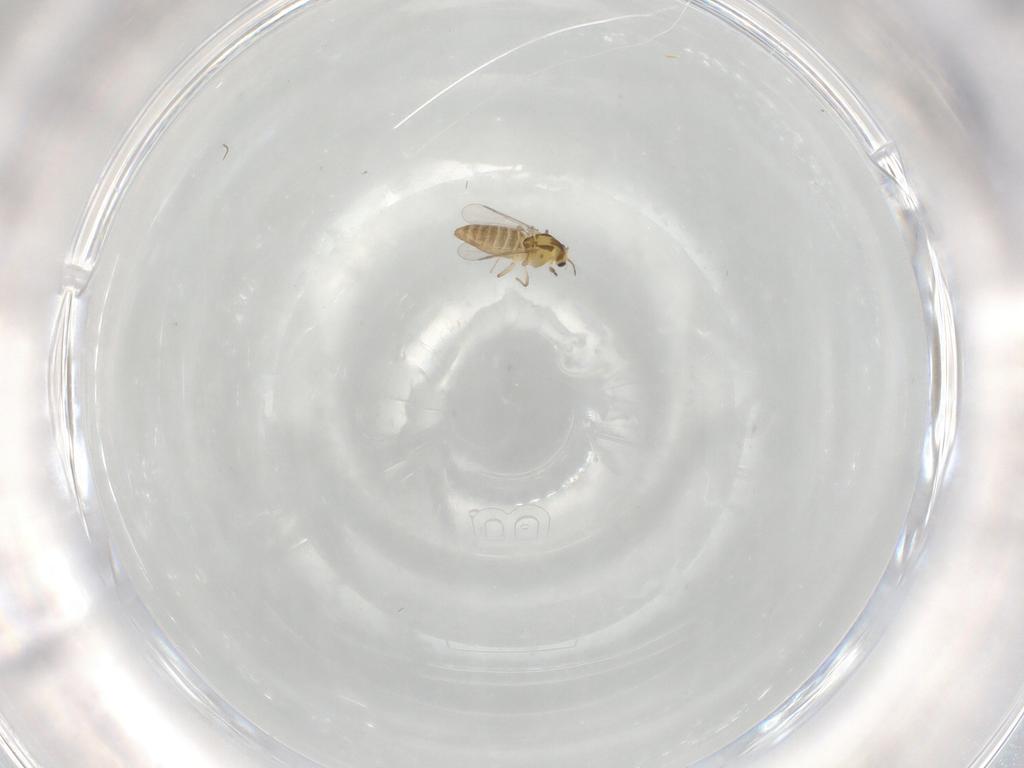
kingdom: Animalia
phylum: Arthropoda
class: Insecta
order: Diptera
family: Chironomidae
